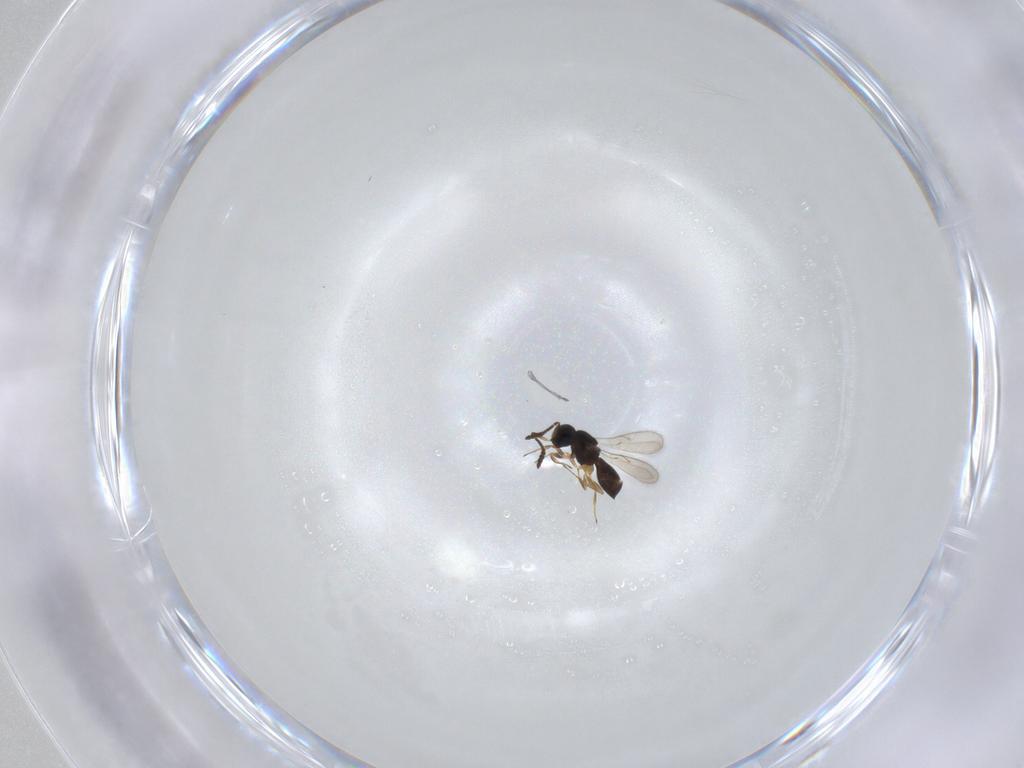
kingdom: Animalia
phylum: Arthropoda
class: Insecta
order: Hymenoptera
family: Scelionidae
